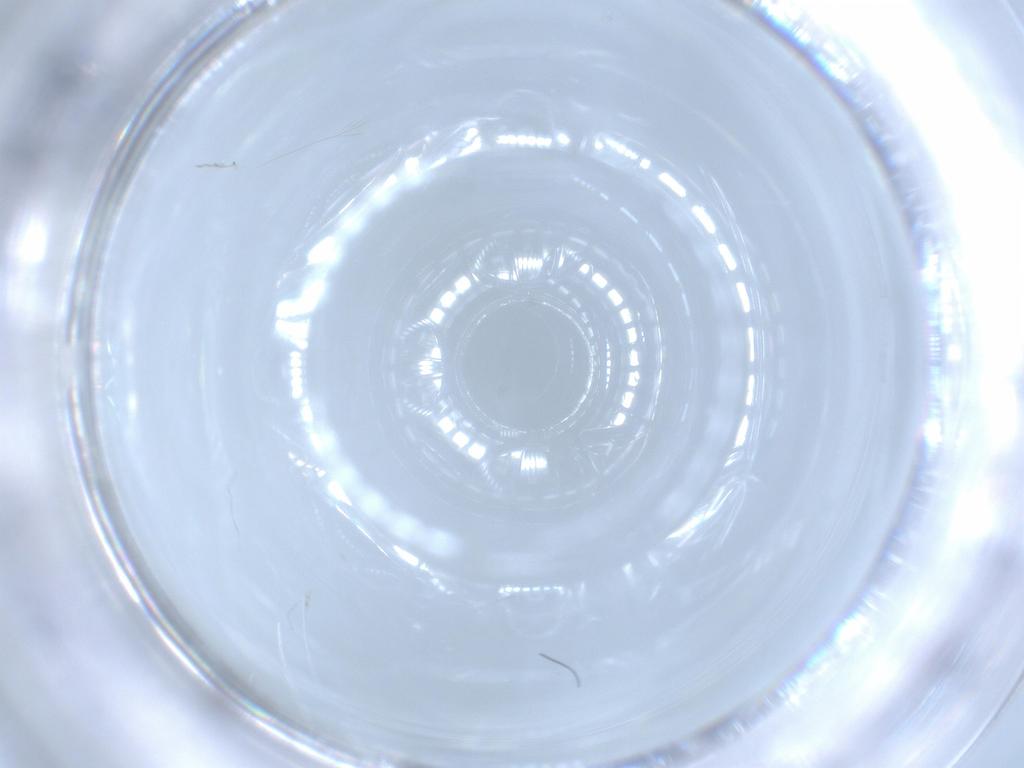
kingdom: Animalia
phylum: Arthropoda
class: Insecta
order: Diptera
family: Cecidomyiidae
